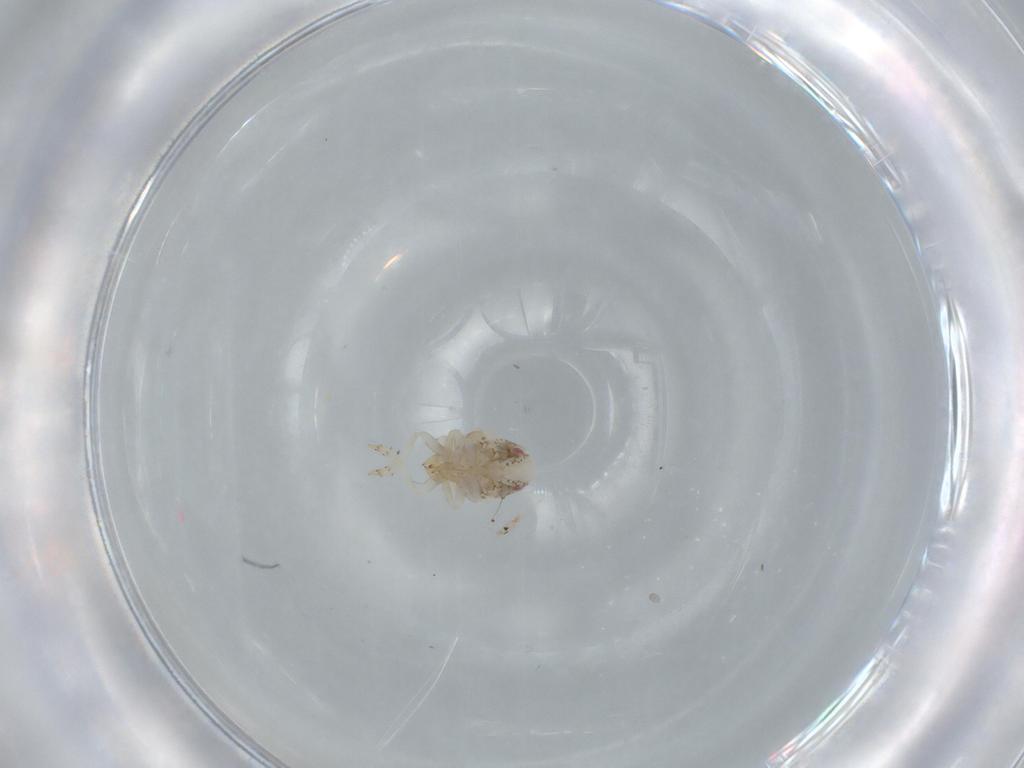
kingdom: Animalia
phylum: Arthropoda
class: Insecta
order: Hemiptera
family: Acanaloniidae
